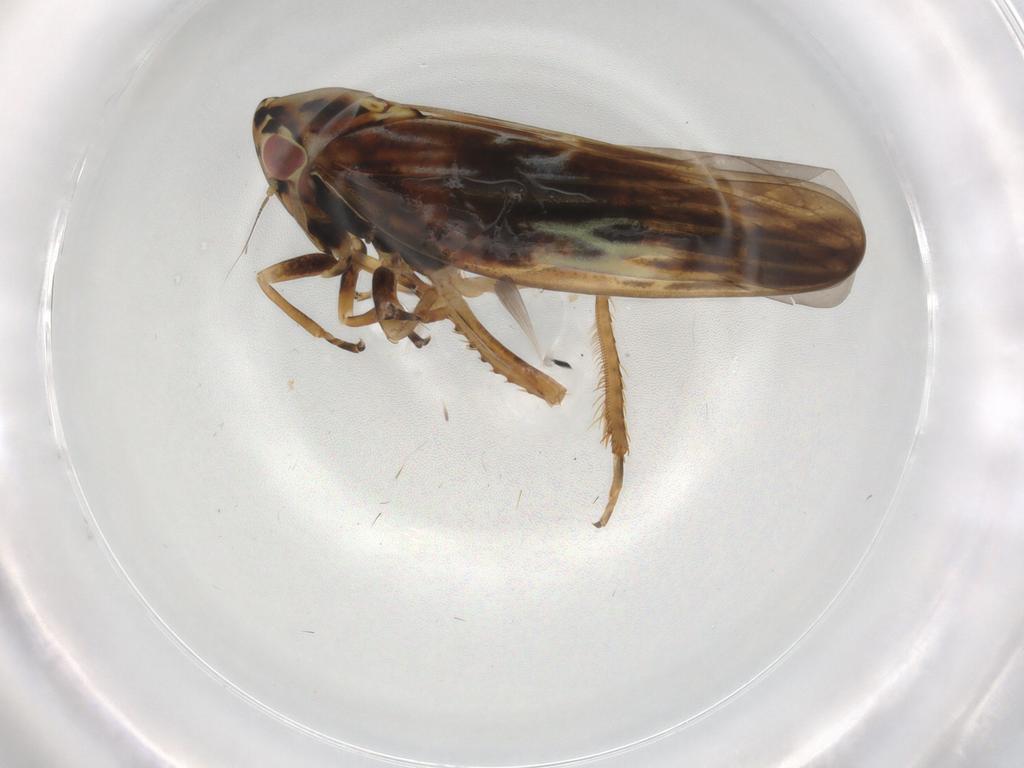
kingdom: Animalia
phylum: Arthropoda
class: Insecta
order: Hemiptera
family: Cicadellidae
